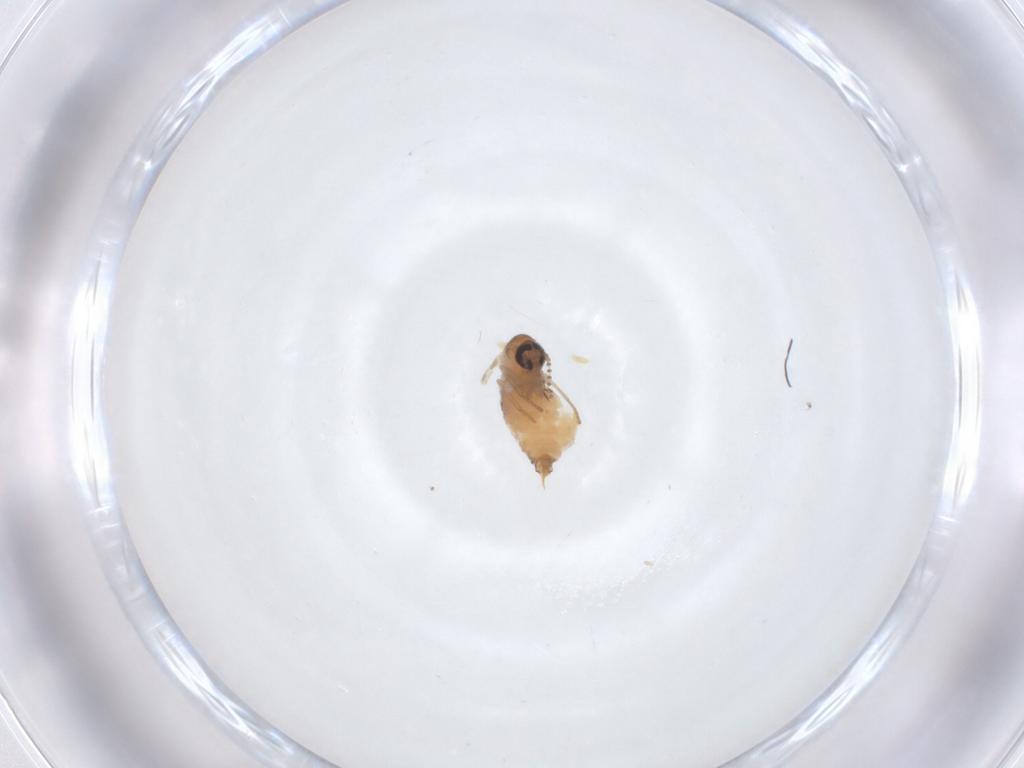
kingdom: Animalia
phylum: Arthropoda
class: Insecta
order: Diptera
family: Psychodidae
